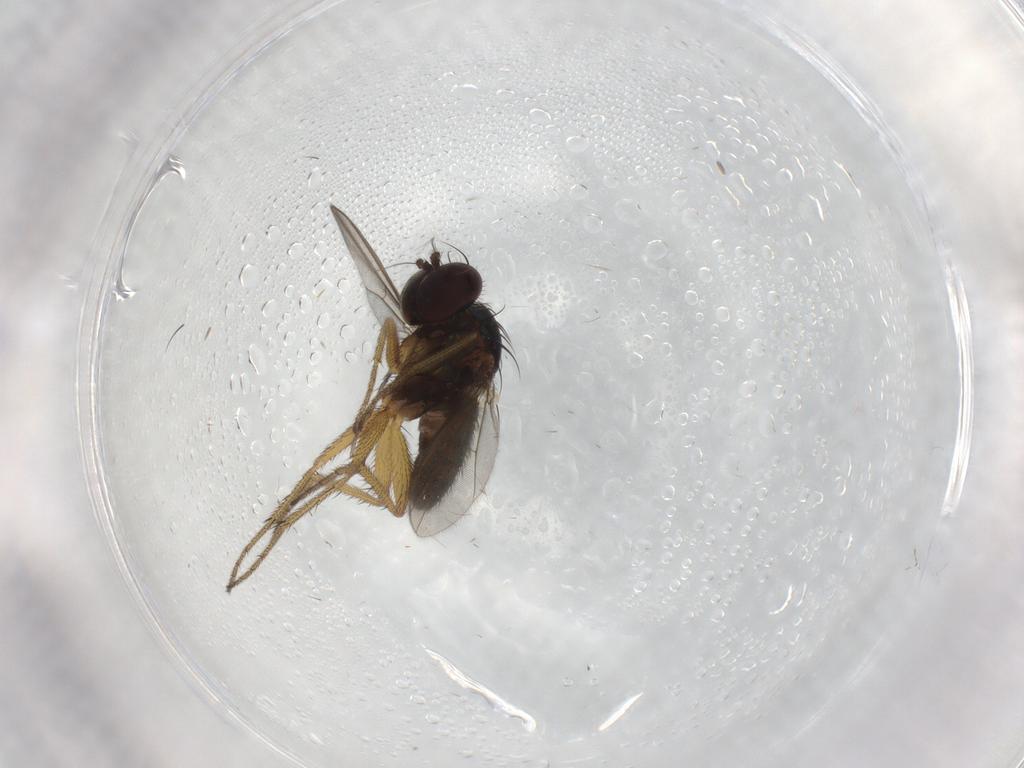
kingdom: Animalia
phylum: Arthropoda
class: Insecta
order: Diptera
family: Sciaridae
